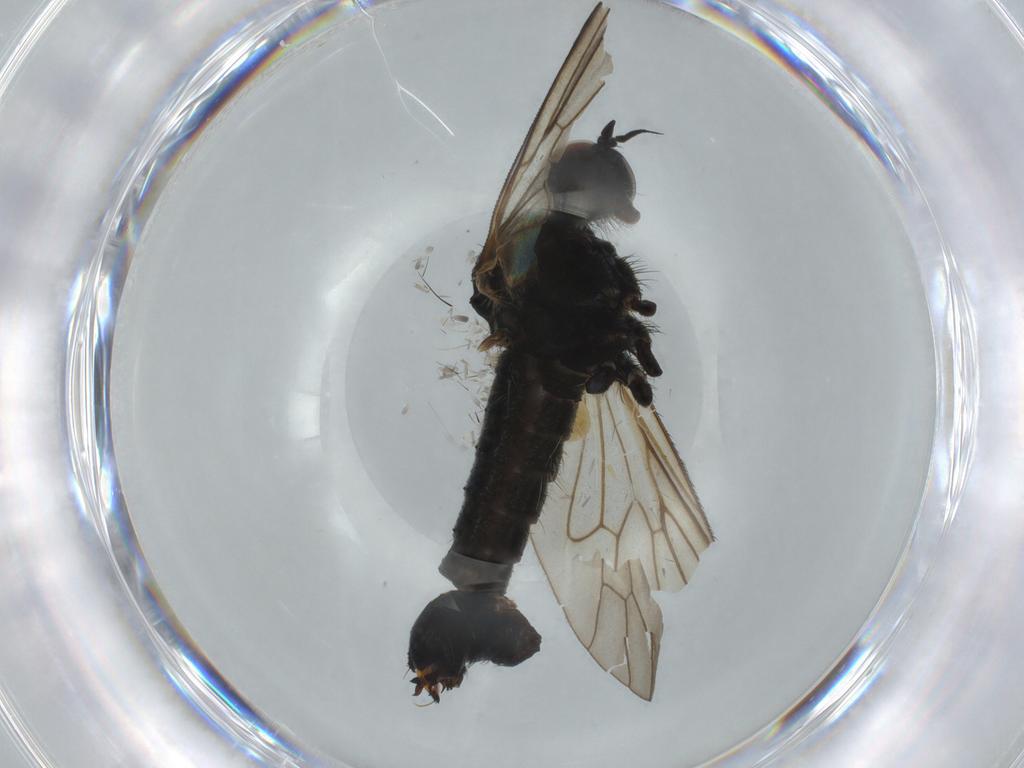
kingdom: Animalia
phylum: Arthropoda
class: Insecta
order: Diptera
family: Brachystomatidae
